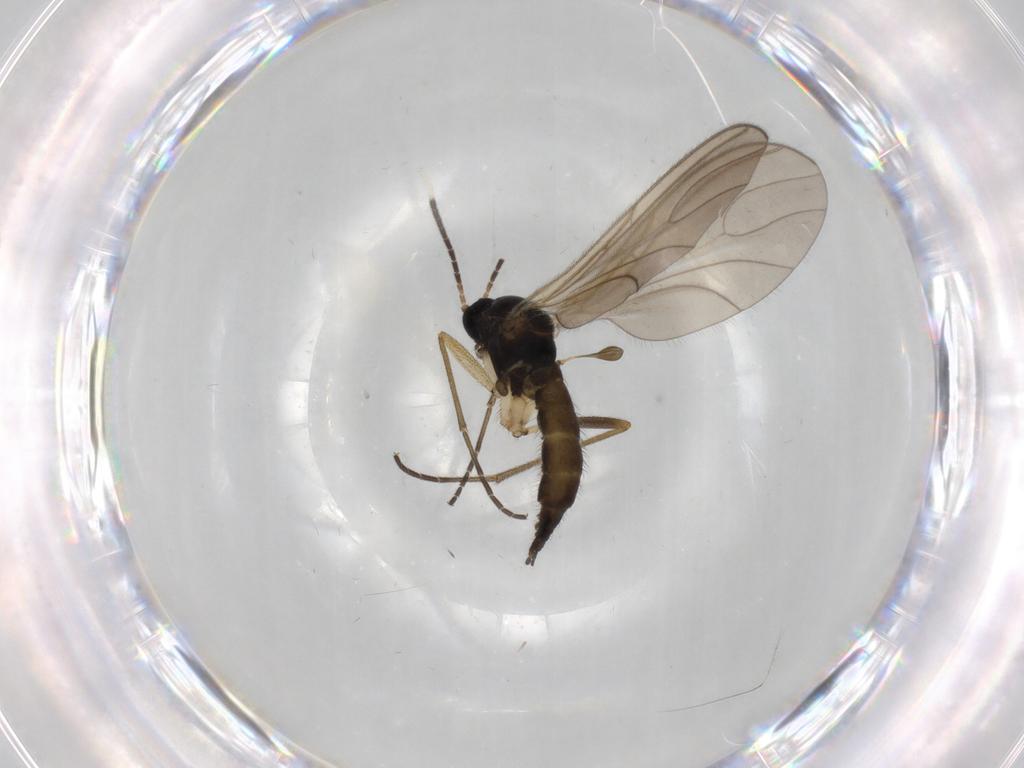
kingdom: Animalia
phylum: Arthropoda
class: Insecta
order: Diptera
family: Sciaridae
